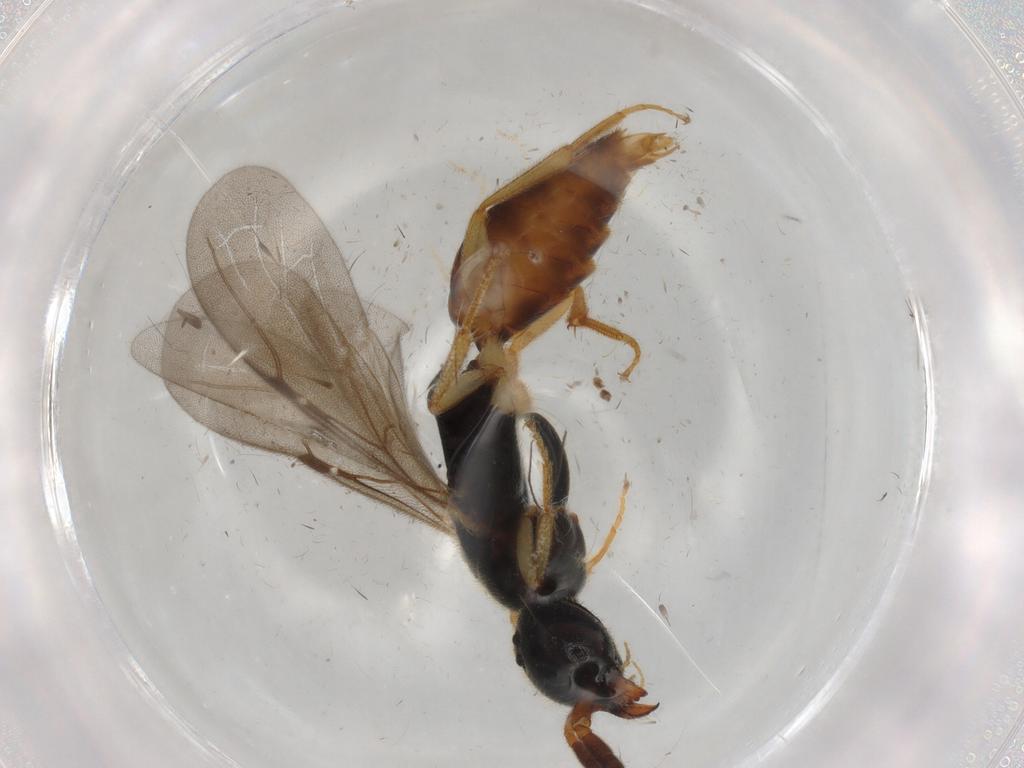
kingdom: Animalia
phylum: Arthropoda
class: Insecta
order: Hymenoptera
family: Bethylidae
